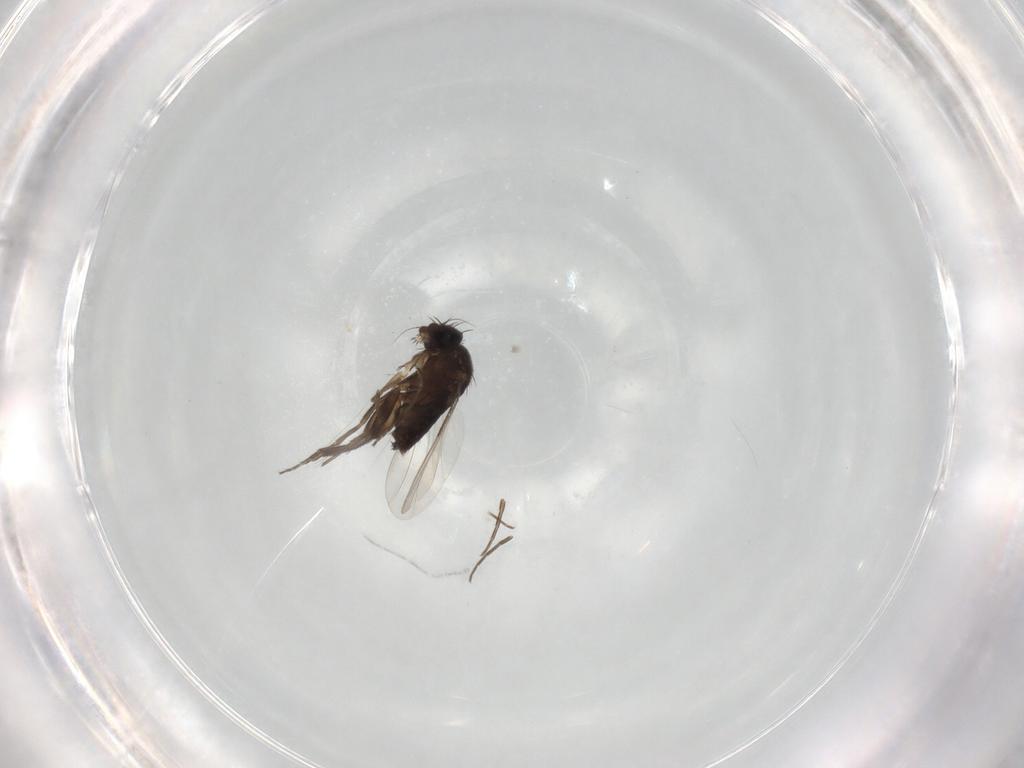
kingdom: Animalia
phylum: Arthropoda
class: Insecta
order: Diptera
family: Phoridae
